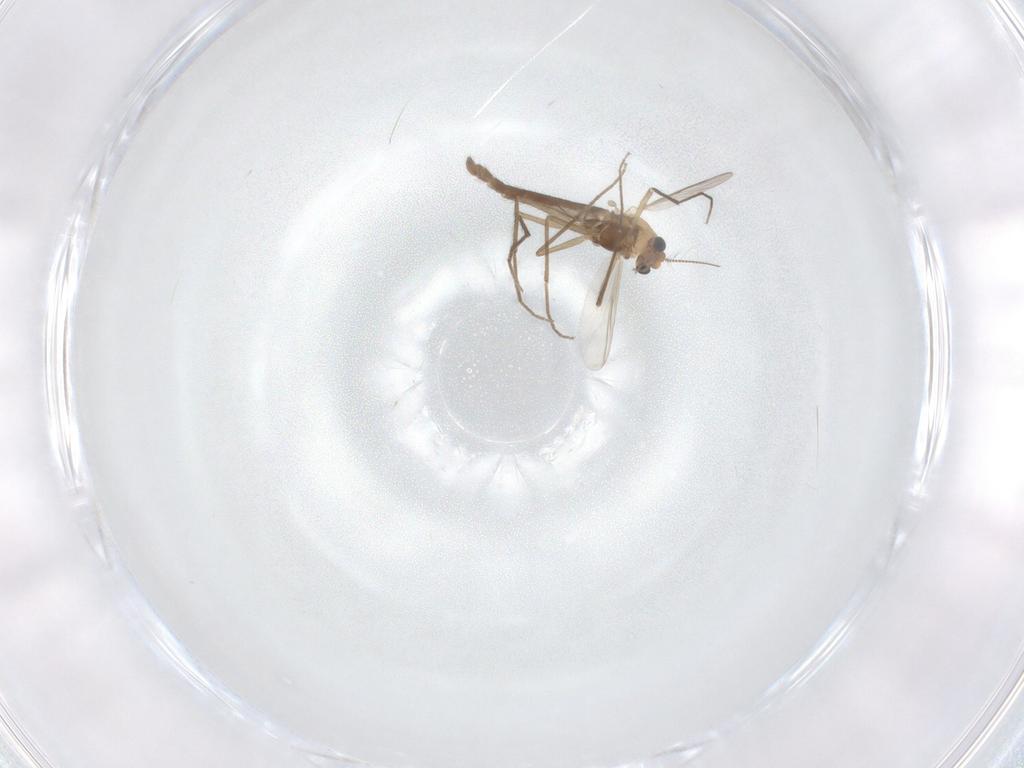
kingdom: Animalia
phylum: Arthropoda
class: Insecta
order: Diptera
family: Chironomidae
